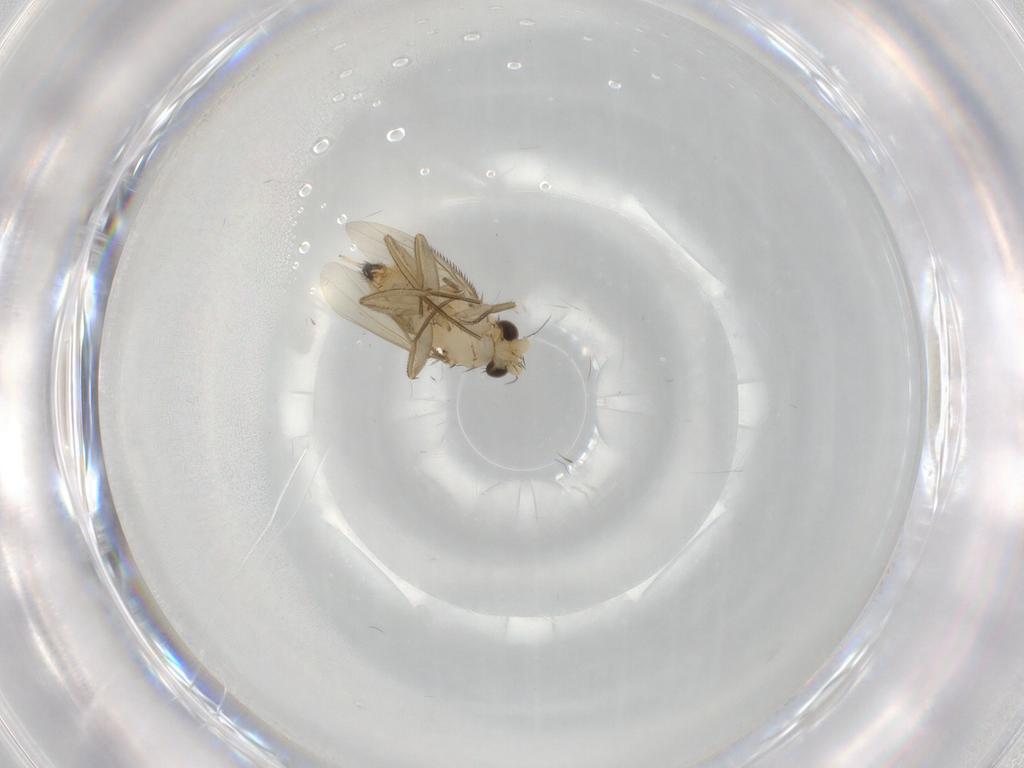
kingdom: Animalia
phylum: Arthropoda
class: Insecta
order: Diptera
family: Phoridae
